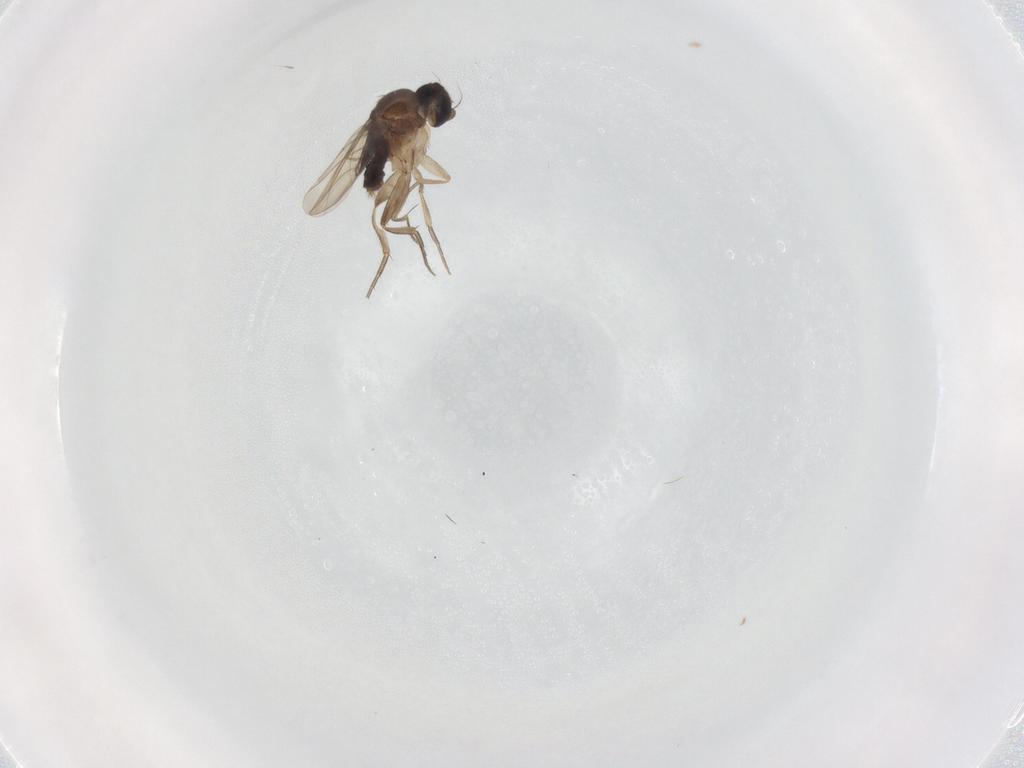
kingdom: Animalia
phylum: Arthropoda
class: Insecta
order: Diptera
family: Phoridae
